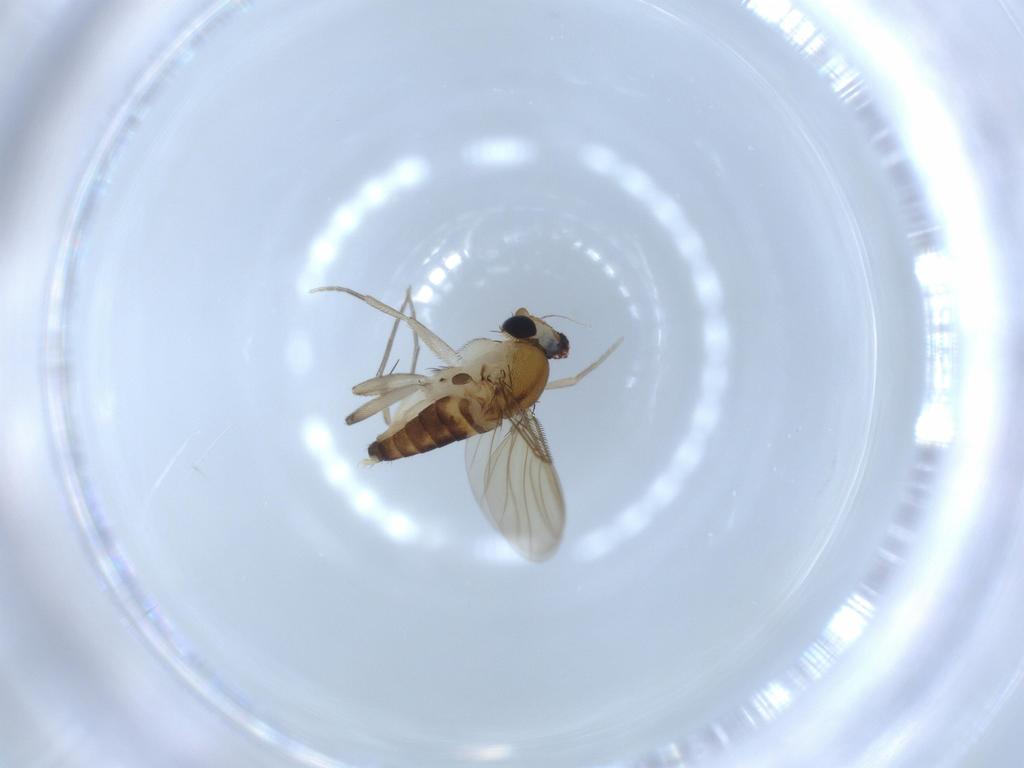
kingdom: Animalia
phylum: Arthropoda
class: Insecta
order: Diptera
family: Phoridae
